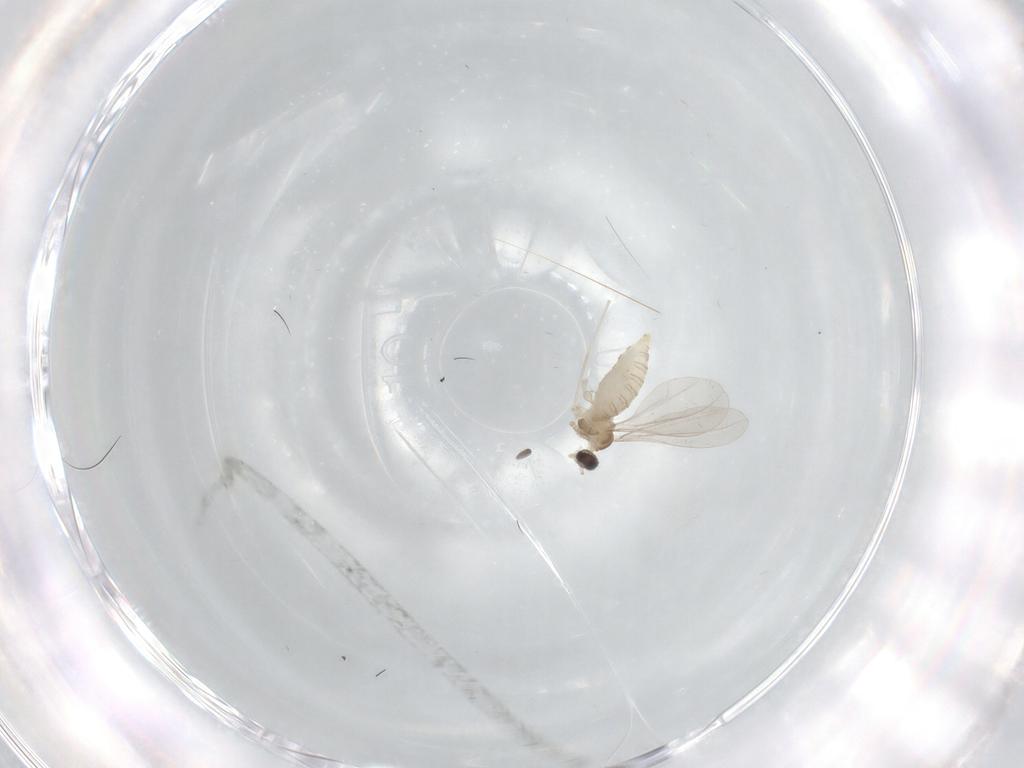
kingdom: Animalia
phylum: Arthropoda
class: Insecta
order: Diptera
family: Cecidomyiidae
